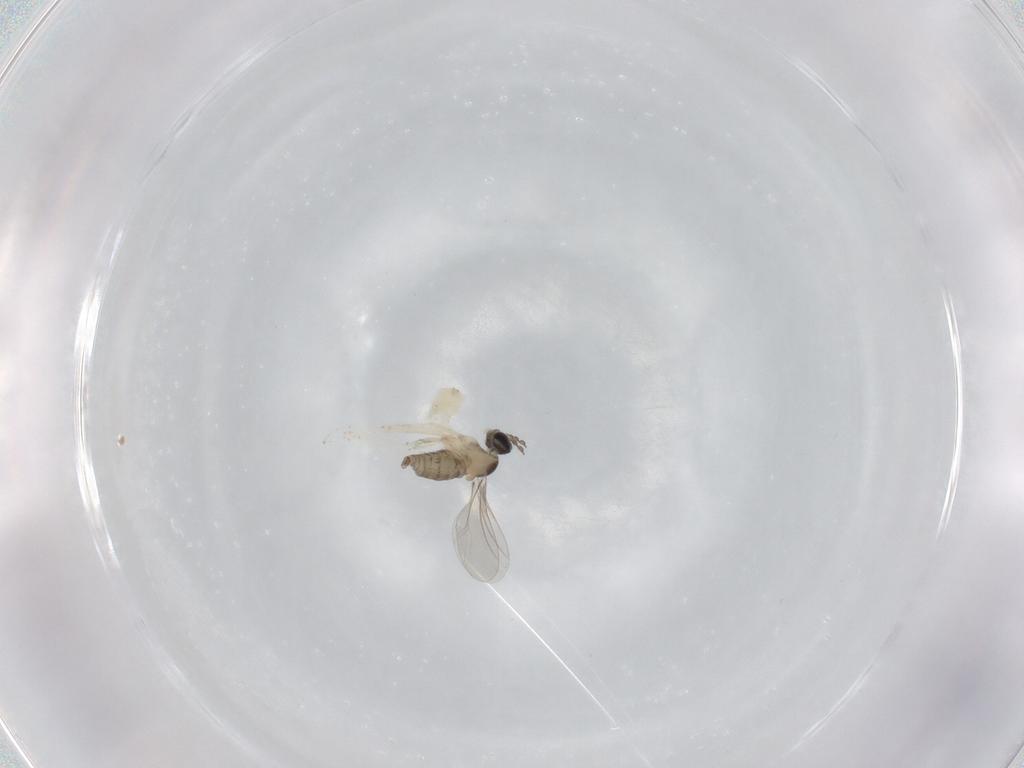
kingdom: Animalia
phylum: Arthropoda
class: Insecta
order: Diptera
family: Cecidomyiidae
